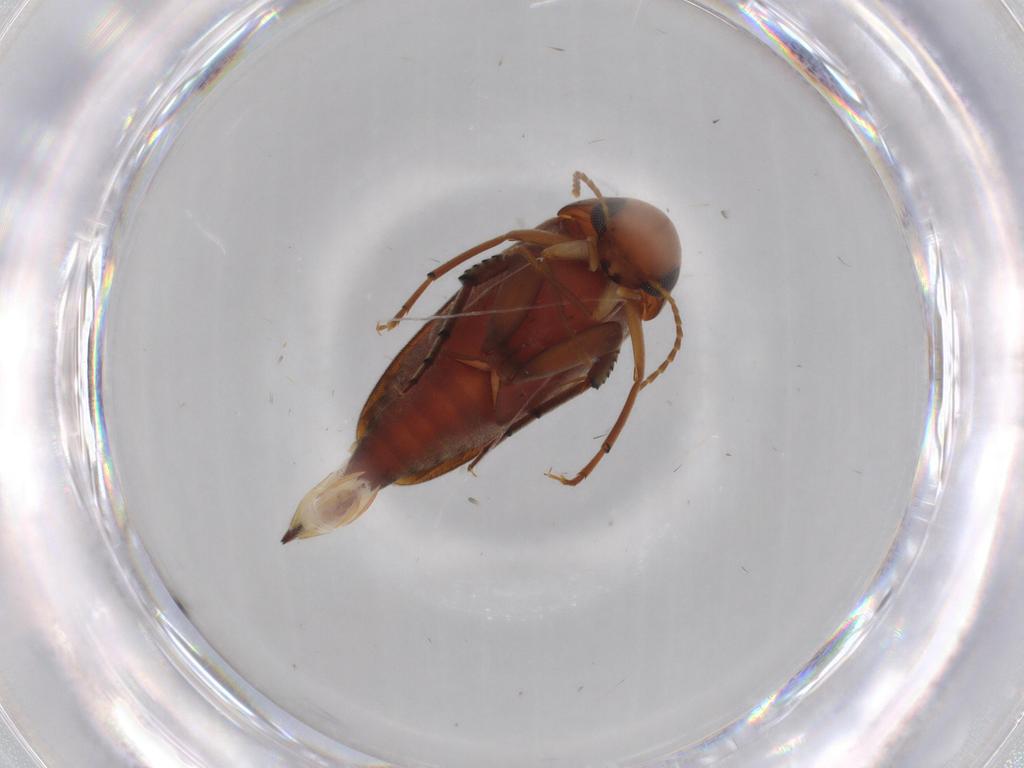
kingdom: Animalia
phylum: Arthropoda
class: Insecta
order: Coleoptera
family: Mordellidae
